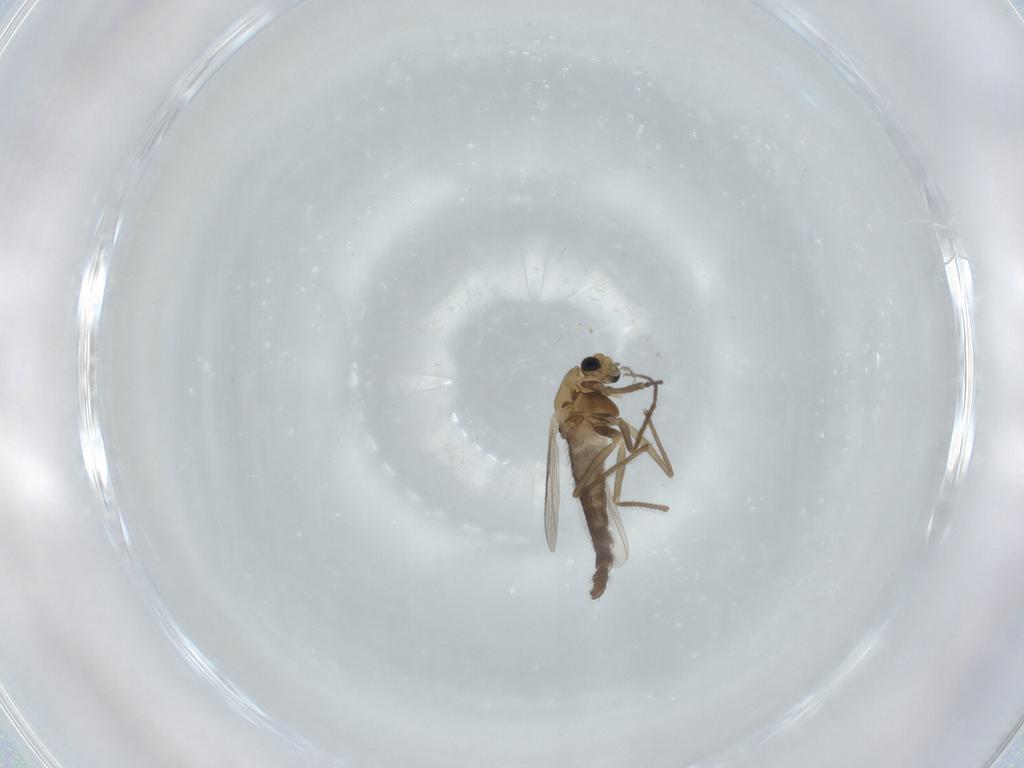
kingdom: Animalia
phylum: Arthropoda
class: Insecta
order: Diptera
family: Chironomidae
